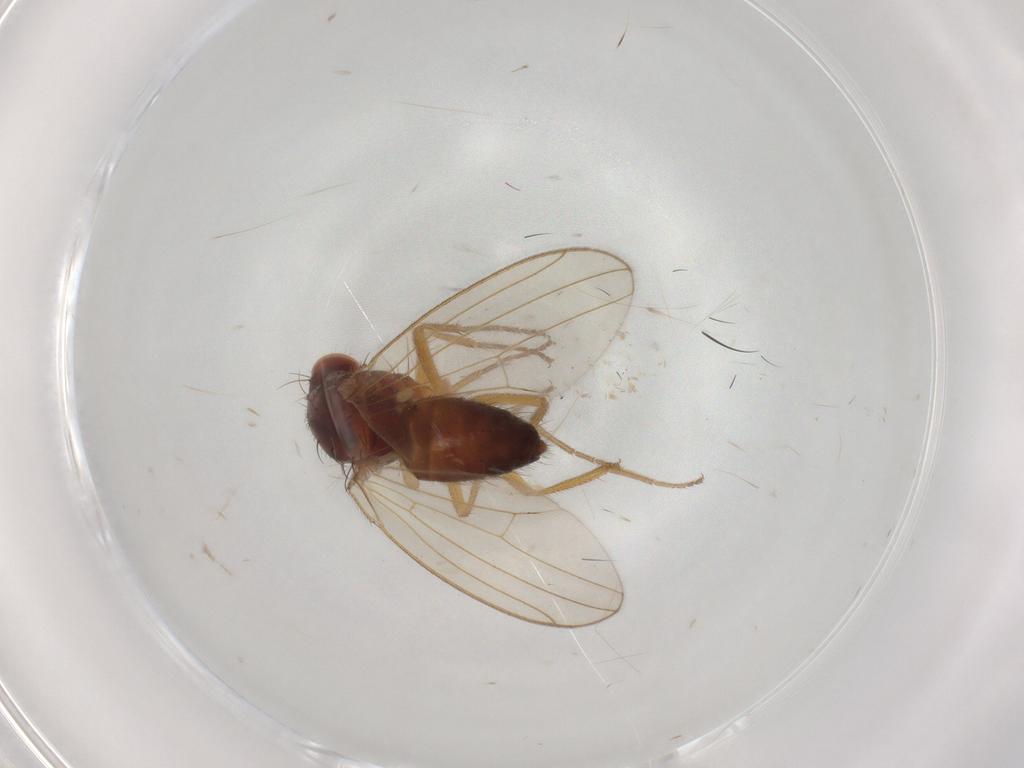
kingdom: Animalia
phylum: Arthropoda
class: Insecta
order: Diptera
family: Drosophilidae
